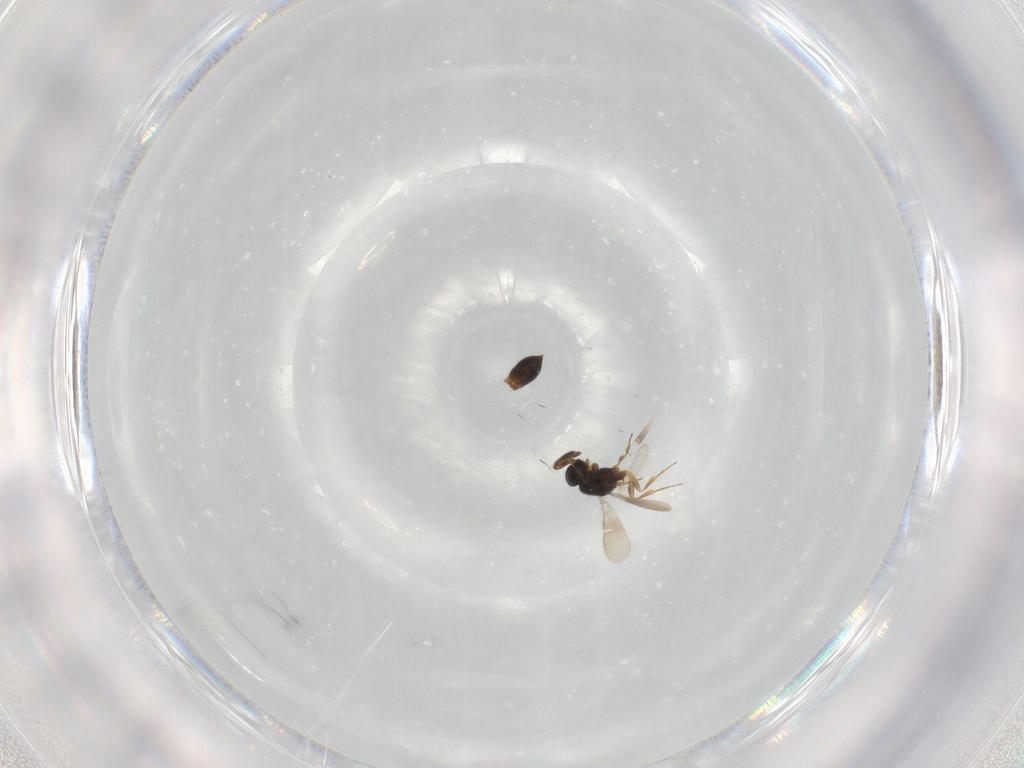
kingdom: Animalia
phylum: Arthropoda
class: Insecta
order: Hymenoptera
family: Scelionidae
